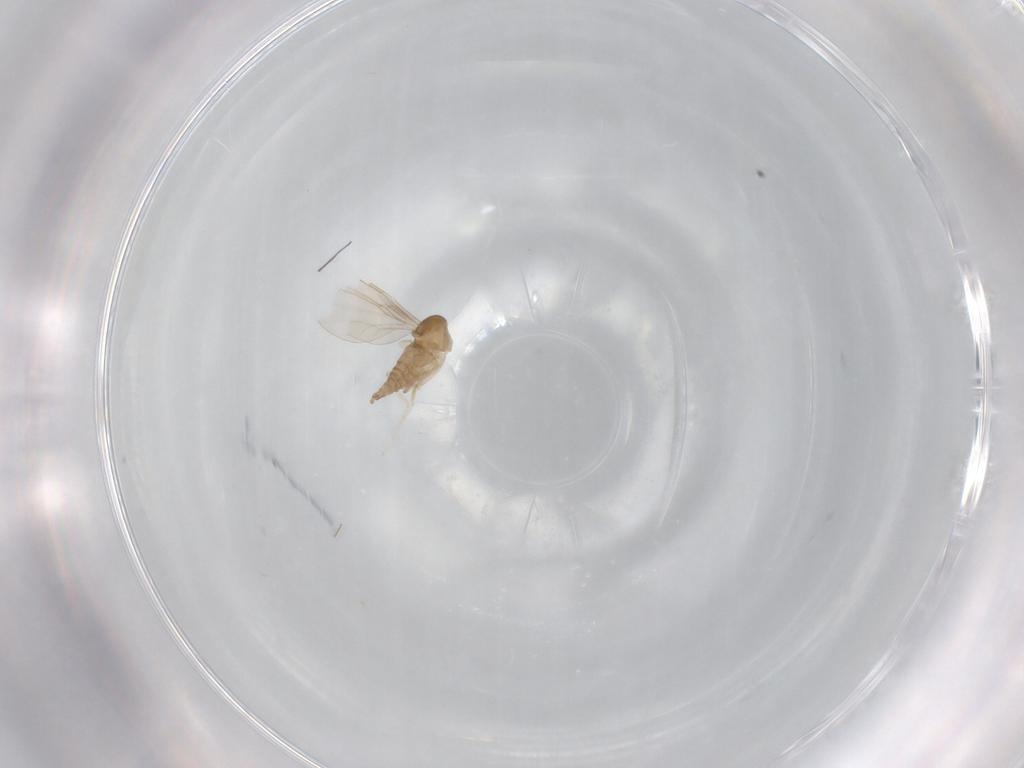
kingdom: Animalia
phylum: Arthropoda
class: Insecta
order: Diptera
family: Cecidomyiidae
